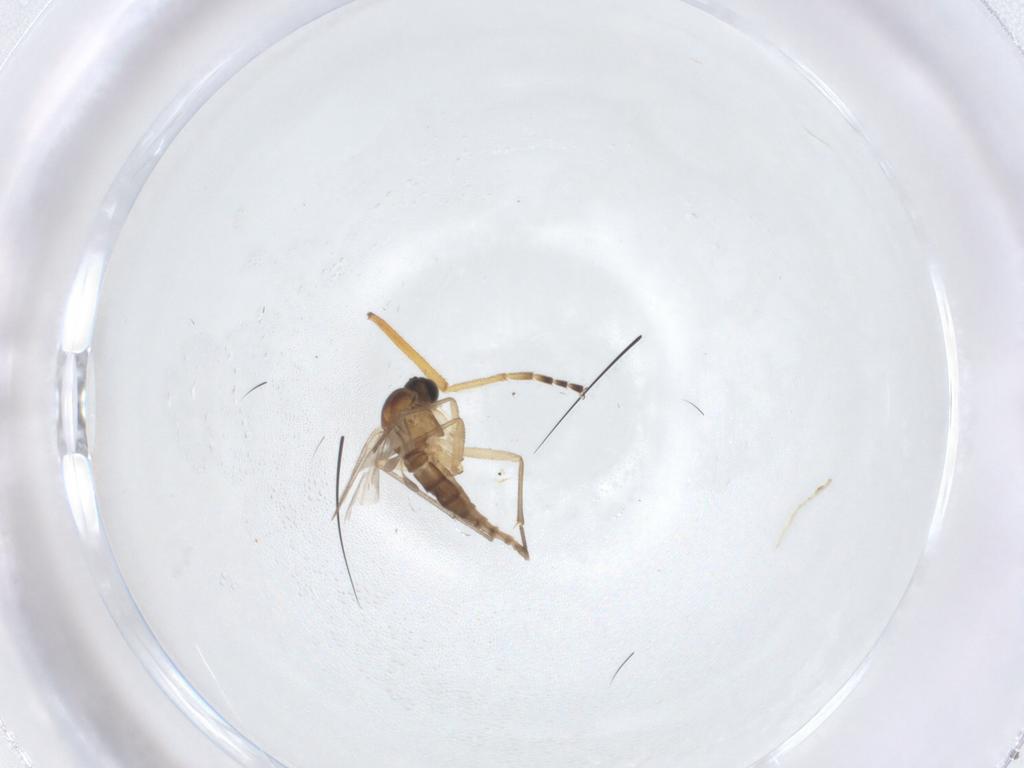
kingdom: Animalia
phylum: Arthropoda
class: Insecta
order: Diptera
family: Sciaridae
